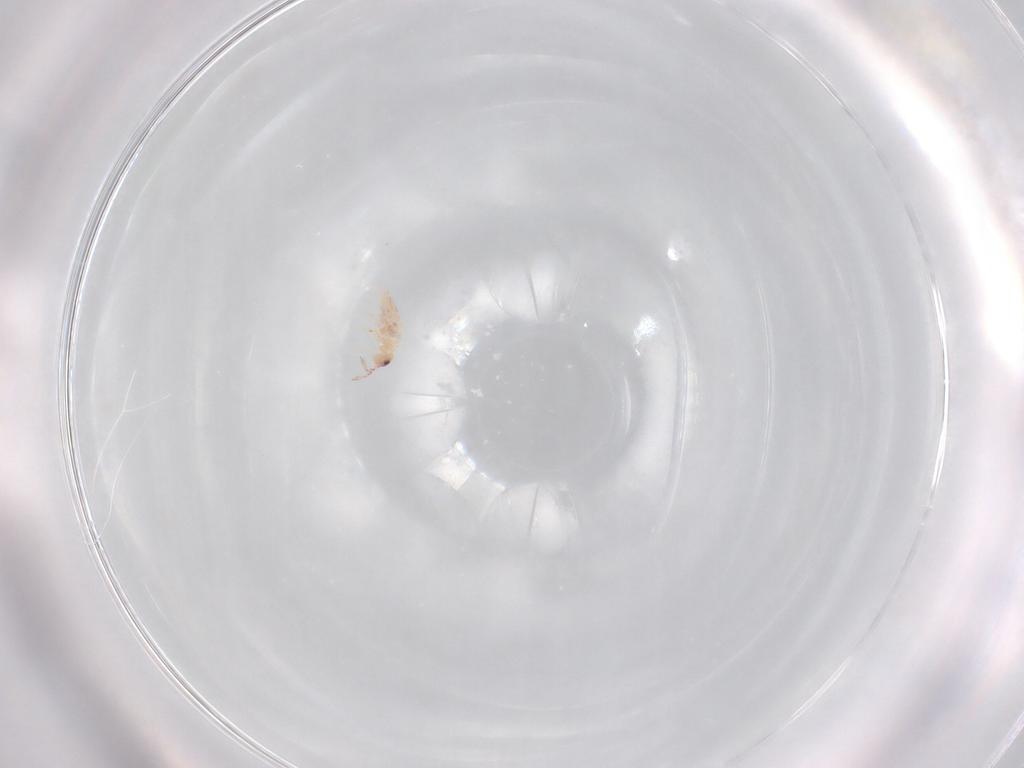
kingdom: Animalia
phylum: Arthropoda
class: Collembola
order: Entomobryomorpha
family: Entomobryidae
